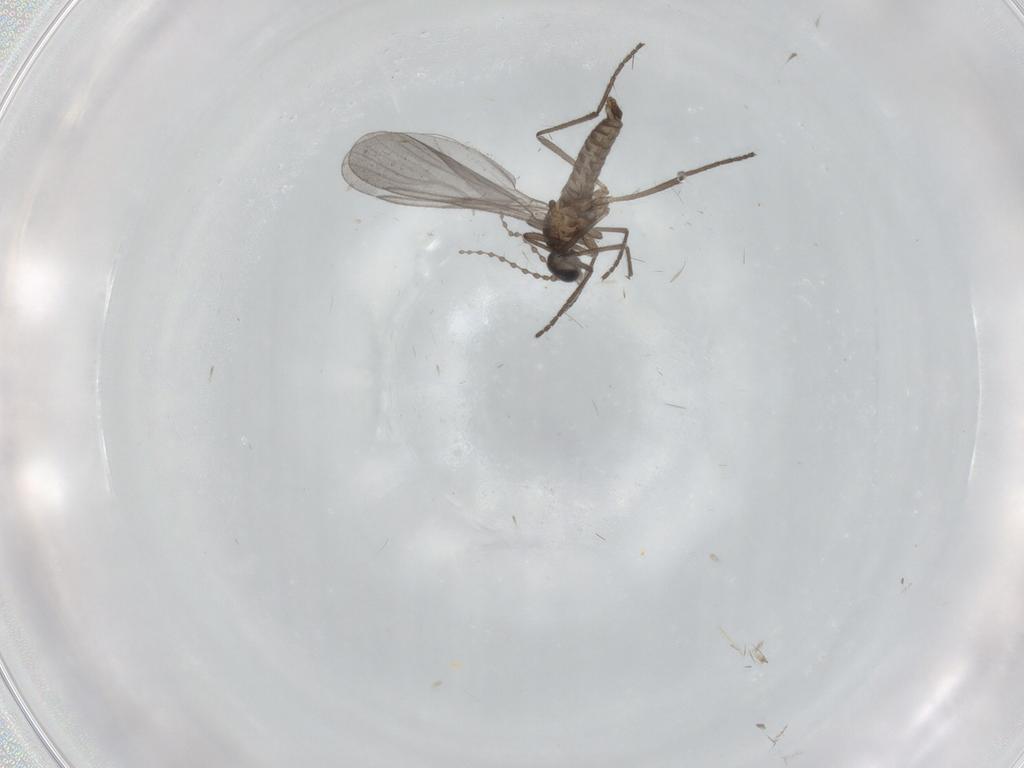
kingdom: Animalia
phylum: Arthropoda
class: Insecta
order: Diptera
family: Cecidomyiidae
